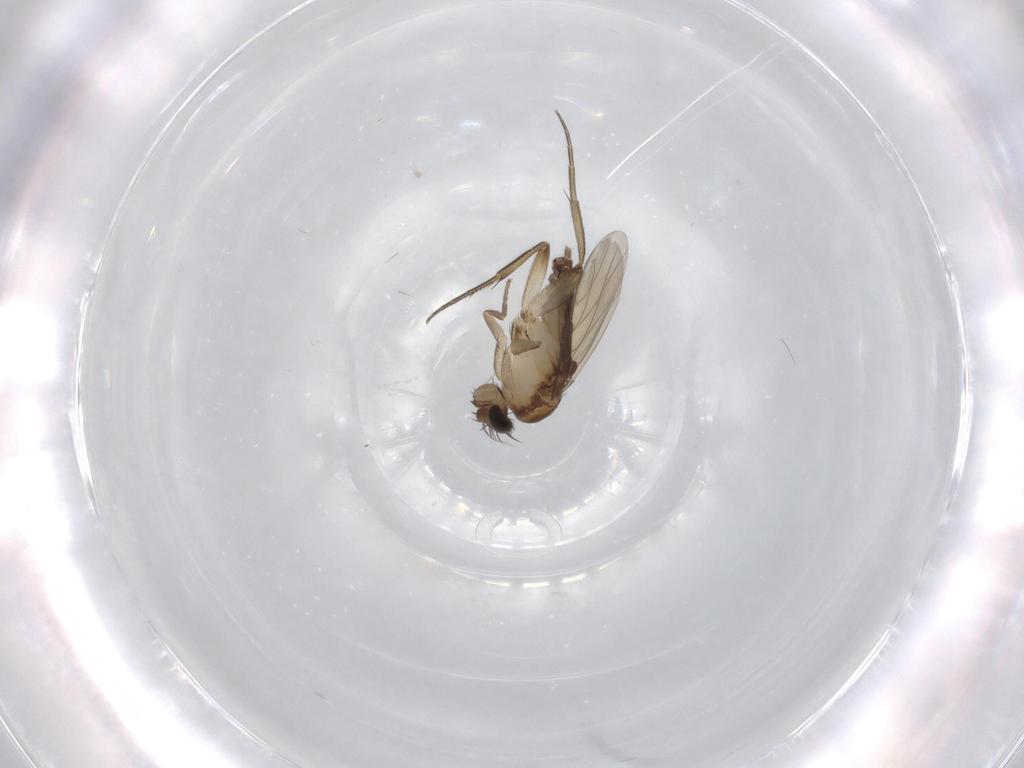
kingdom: Animalia
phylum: Arthropoda
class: Insecta
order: Diptera
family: Phoridae
